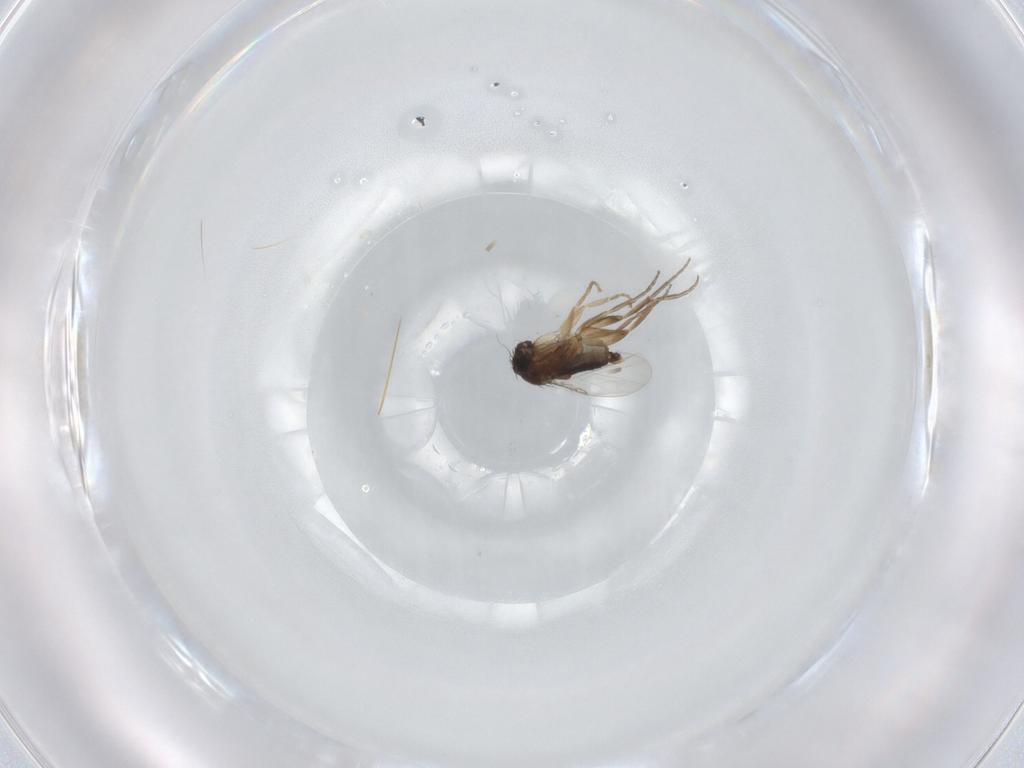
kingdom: Animalia
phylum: Arthropoda
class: Insecta
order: Diptera
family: Phoridae
